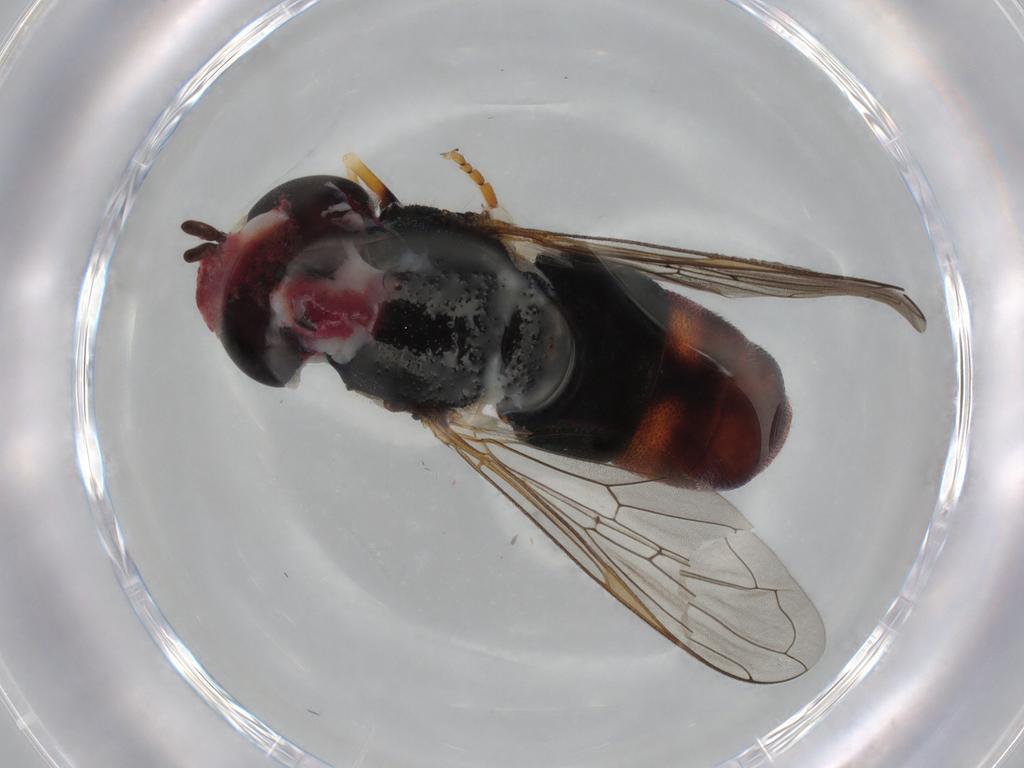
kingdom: Animalia
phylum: Arthropoda
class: Insecta
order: Diptera
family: Syrphidae
